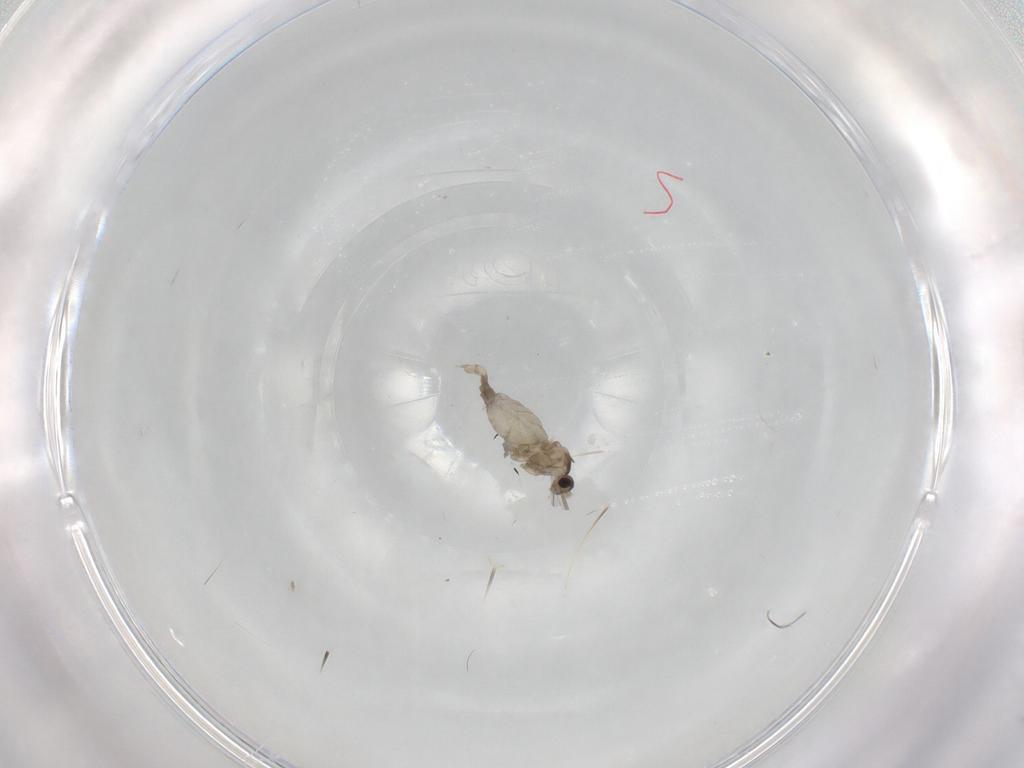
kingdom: Animalia
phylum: Arthropoda
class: Insecta
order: Diptera
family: Cecidomyiidae
